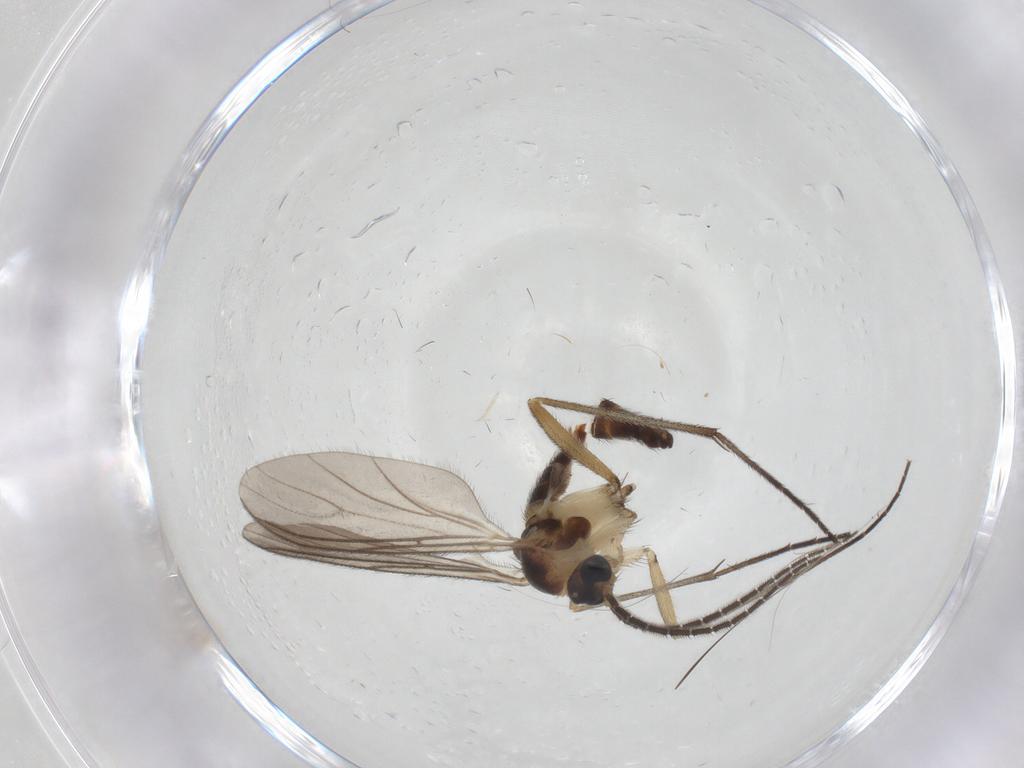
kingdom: Animalia
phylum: Arthropoda
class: Insecta
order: Diptera
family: Sciaridae
